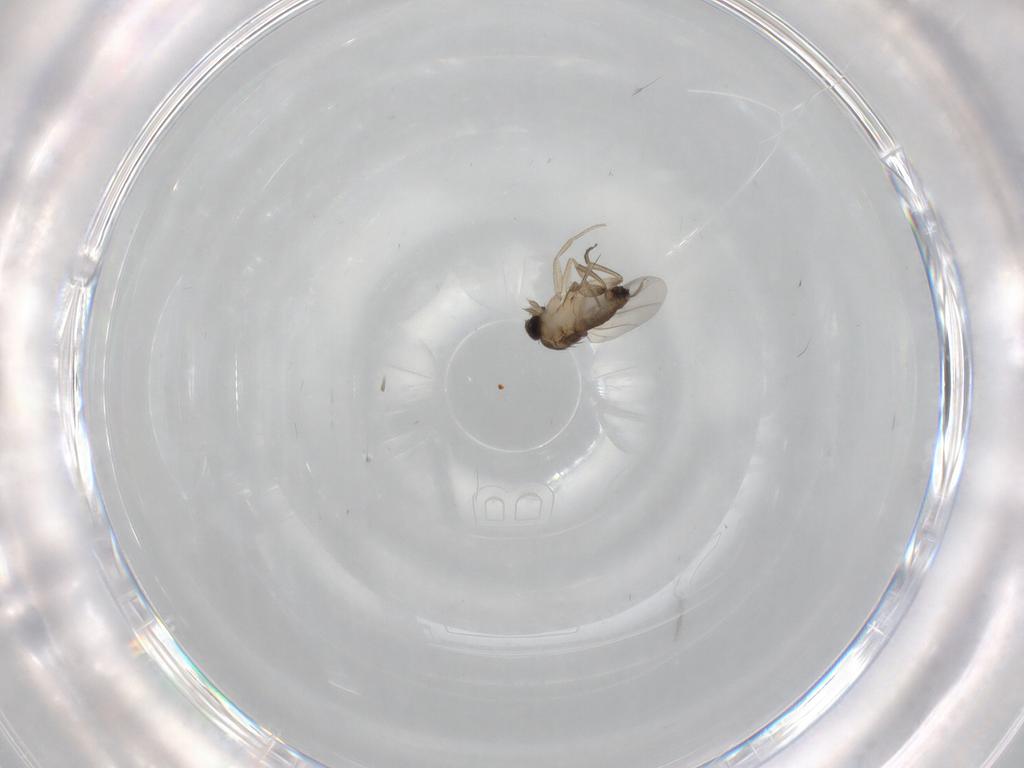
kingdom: Animalia
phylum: Arthropoda
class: Insecta
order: Diptera
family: Phoridae
